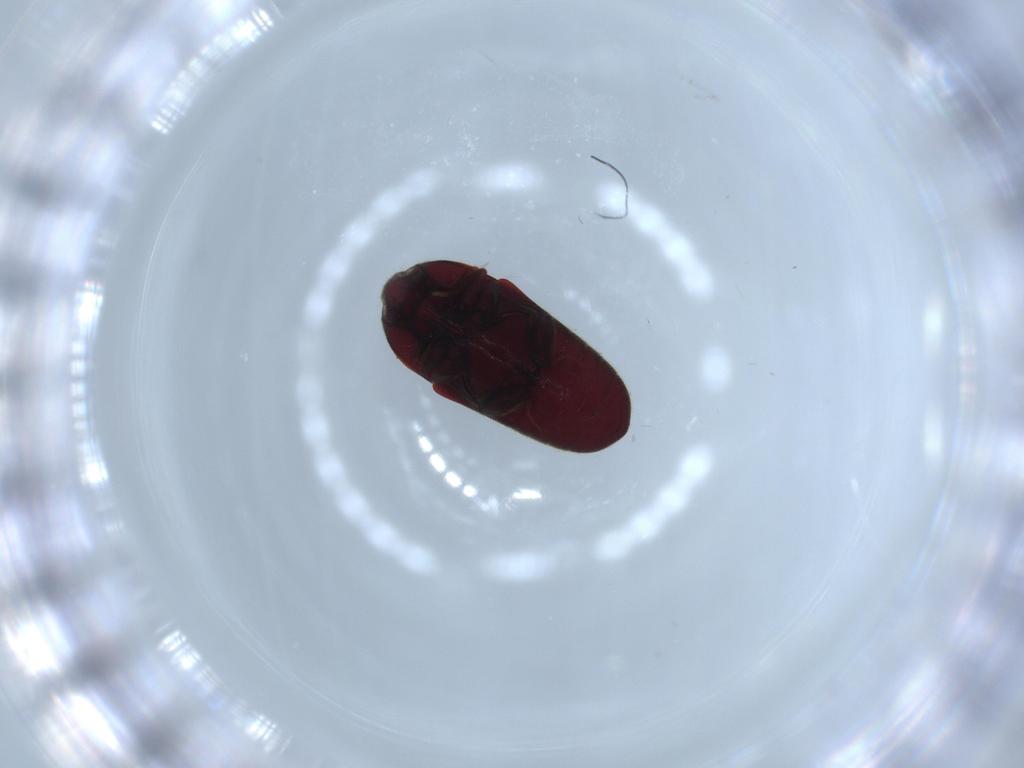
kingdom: Animalia
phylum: Arthropoda
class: Insecta
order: Coleoptera
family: Throscidae
